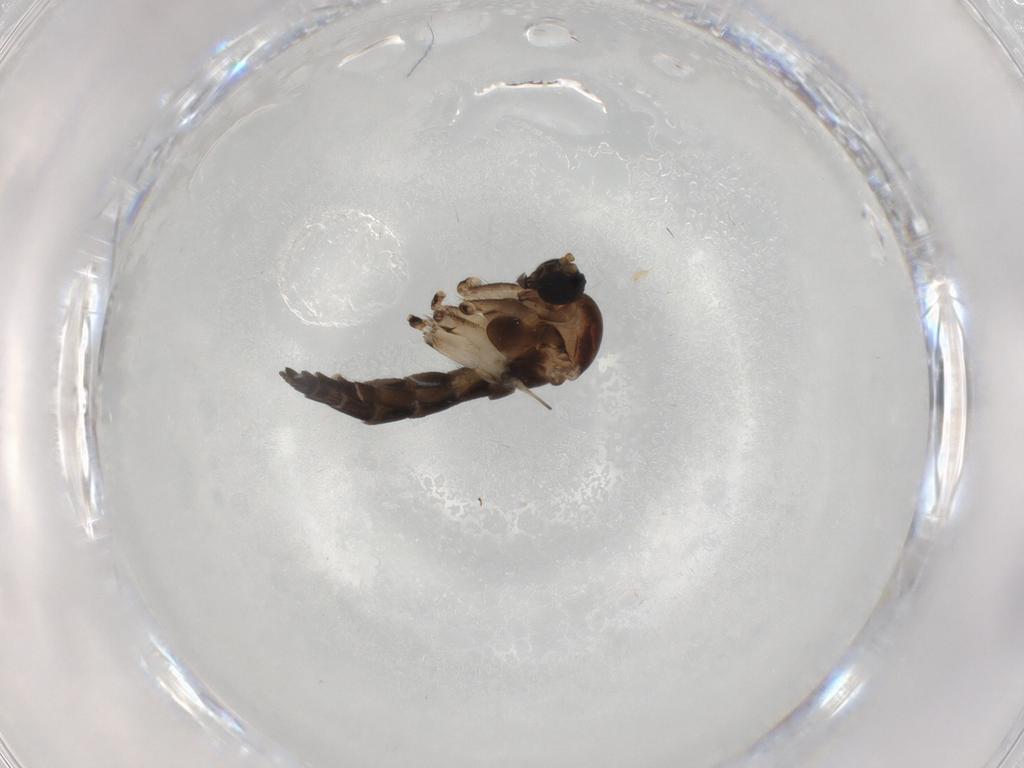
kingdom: Animalia
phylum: Arthropoda
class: Insecta
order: Diptera
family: Sciaridae
